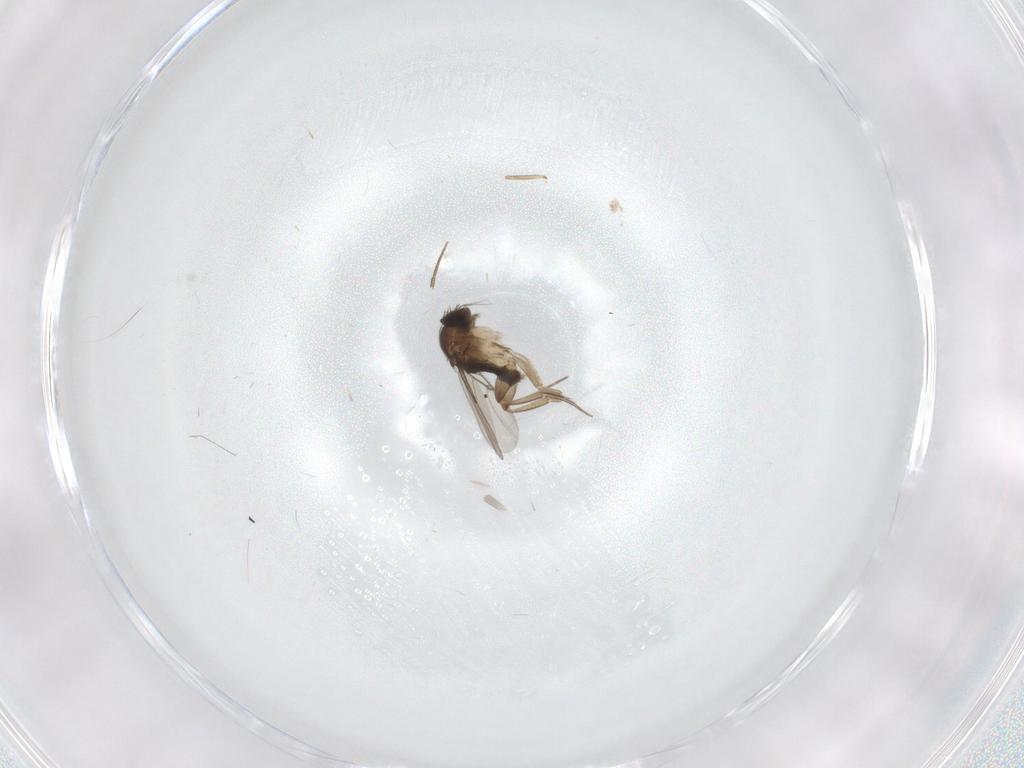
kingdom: Animalia
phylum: Arthropoda
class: Insecta
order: Diptera
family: Phoridae
